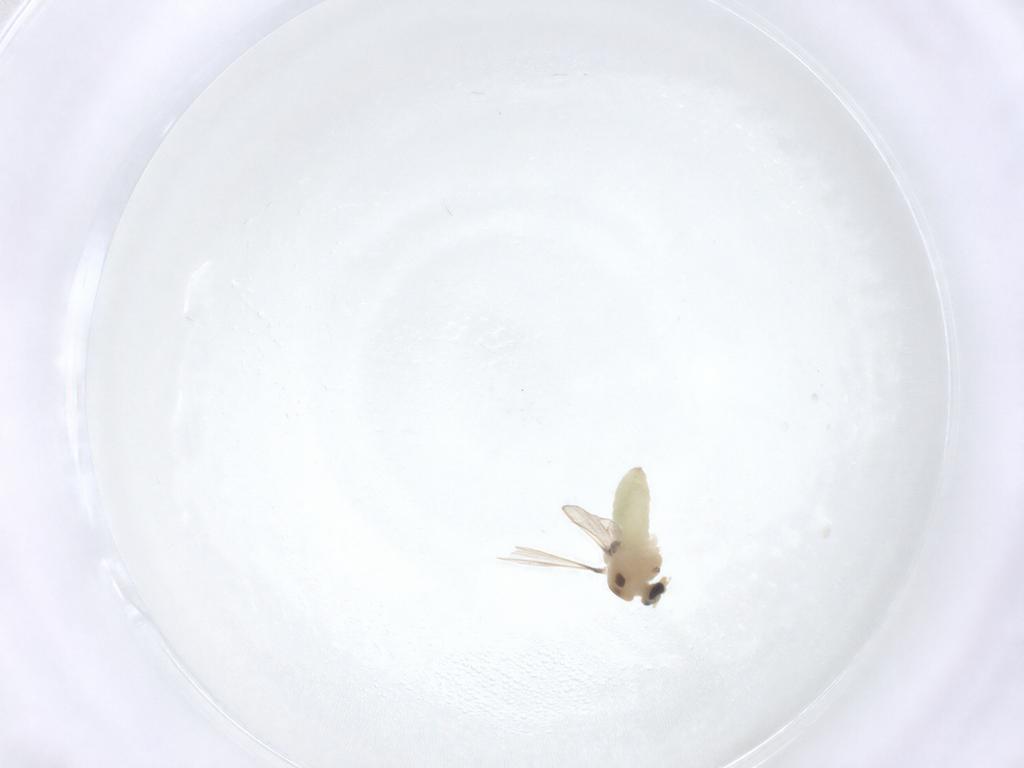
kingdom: Animalia
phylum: Arthropoda
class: Insecta
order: Diptera
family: Chironomidae
